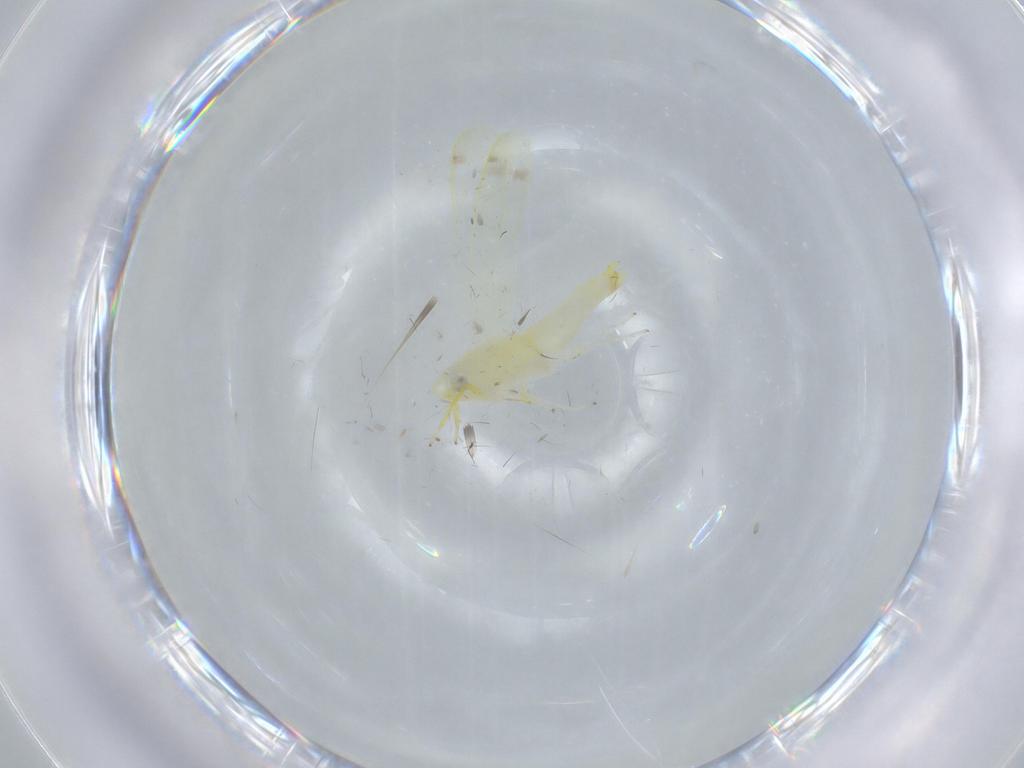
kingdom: Animalia
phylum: Arthropoda
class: Insecta
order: Hemiptera
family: Cicadellidae
